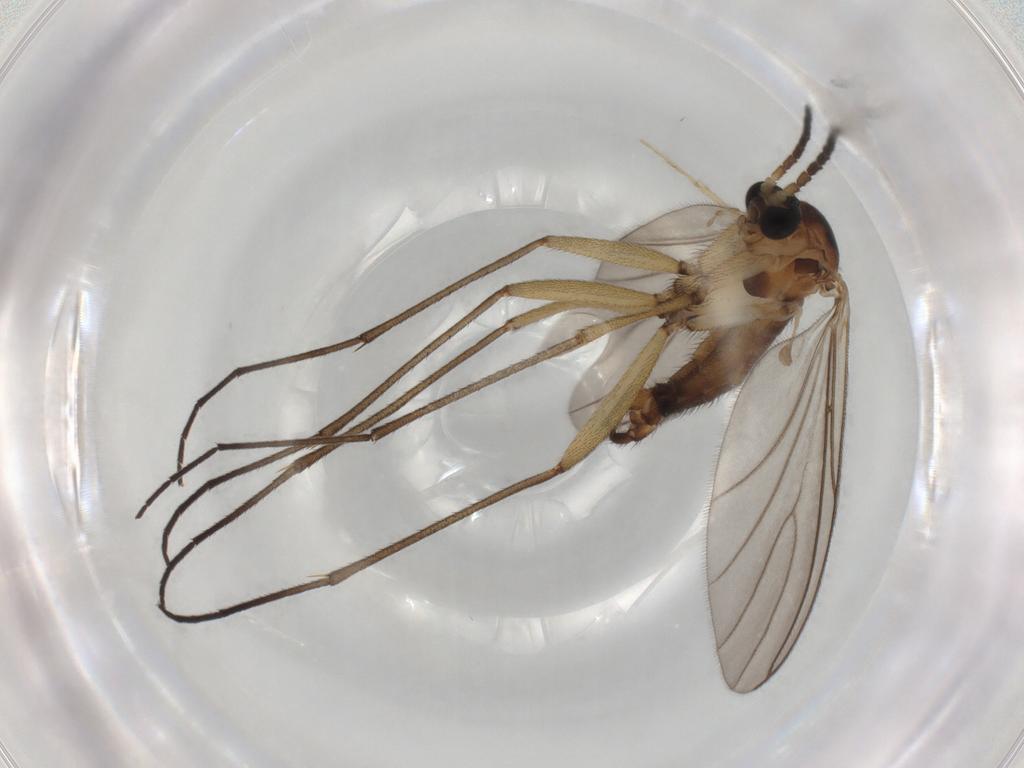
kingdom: Animalia
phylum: Arthropoda
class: Insecta
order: Diptera
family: Sciaridae
